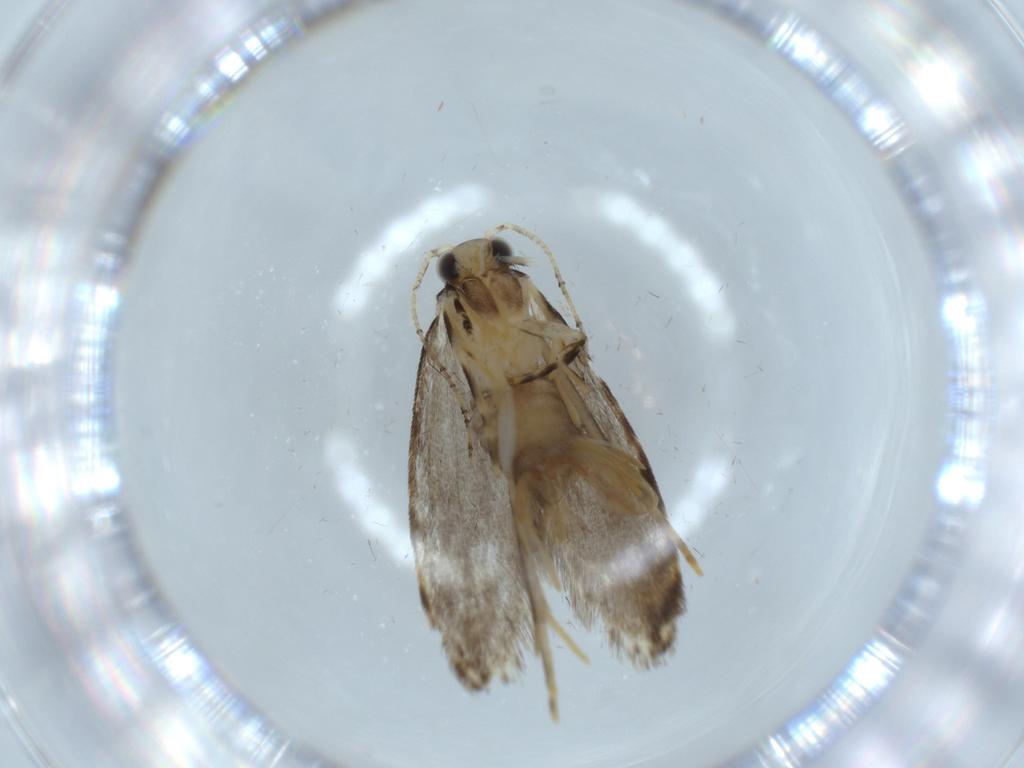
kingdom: Animalia
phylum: Arthropoda
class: Insecta
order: Lepidoptera
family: Tineidae
